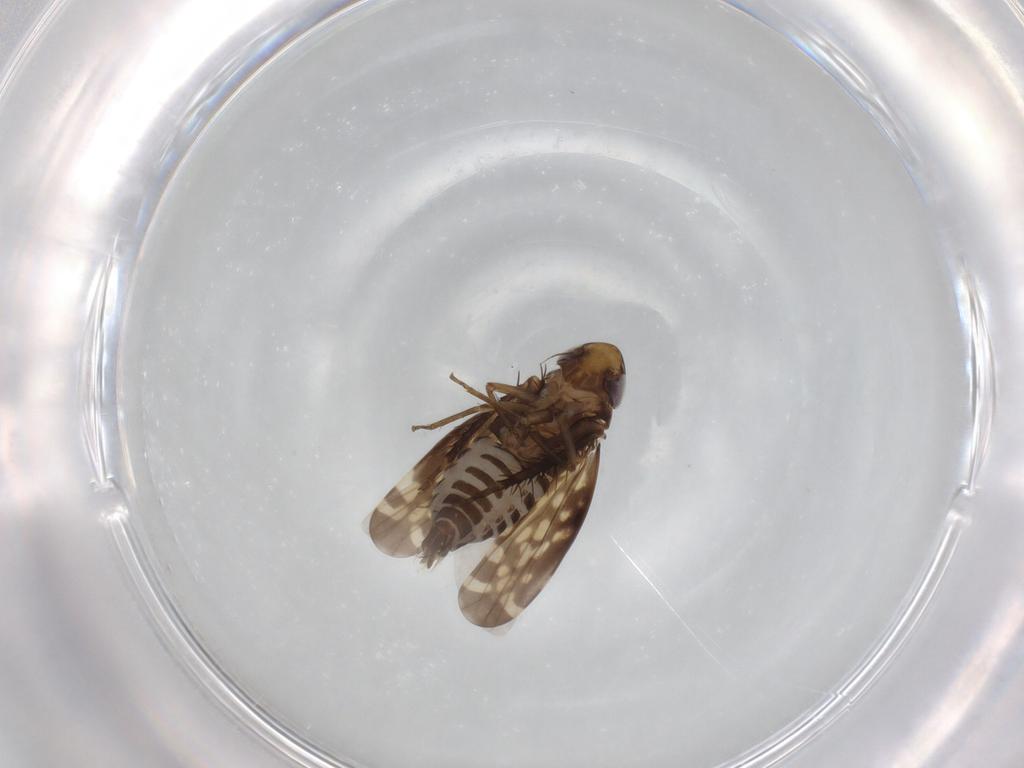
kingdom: Animalia
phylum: Arthropoda
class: Insecta
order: Hemiptera
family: Cicadellidae
